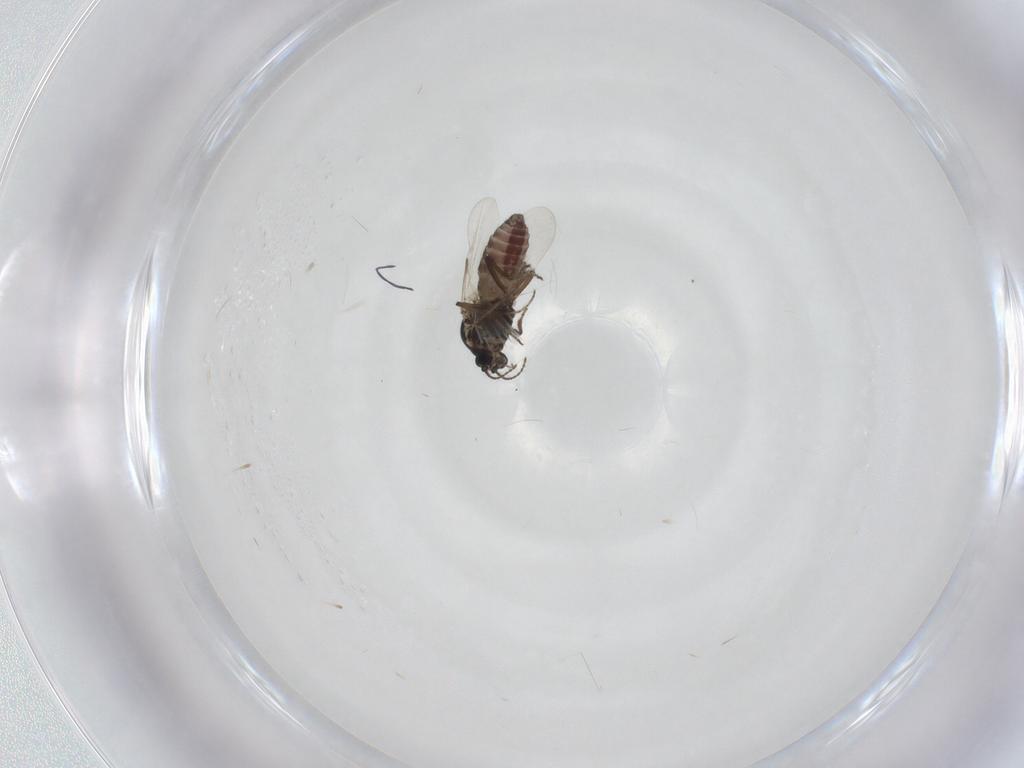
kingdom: Animalia
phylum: Arthropoda
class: Insecta
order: Diptera
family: Ceratopogonidae
